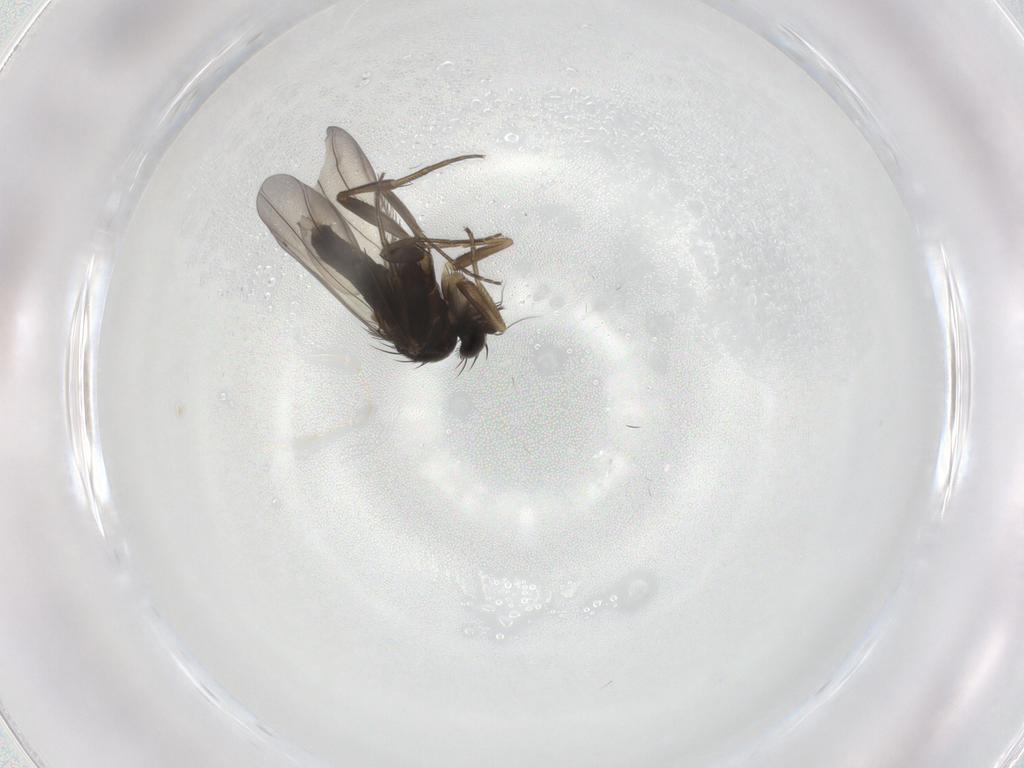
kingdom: Animalia
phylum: Arthropoda
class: Insecta
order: Diptera
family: Phoridae
